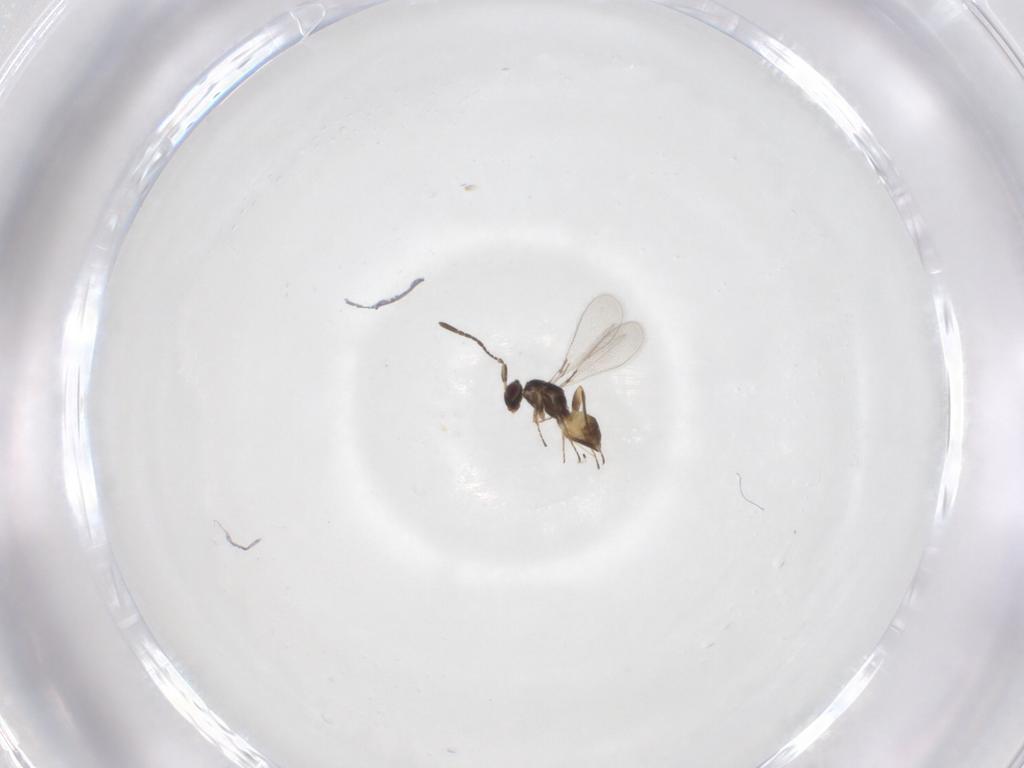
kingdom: Animalia
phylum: Arthropoda
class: Insecta
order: Hymenoptera
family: Mymaridae
